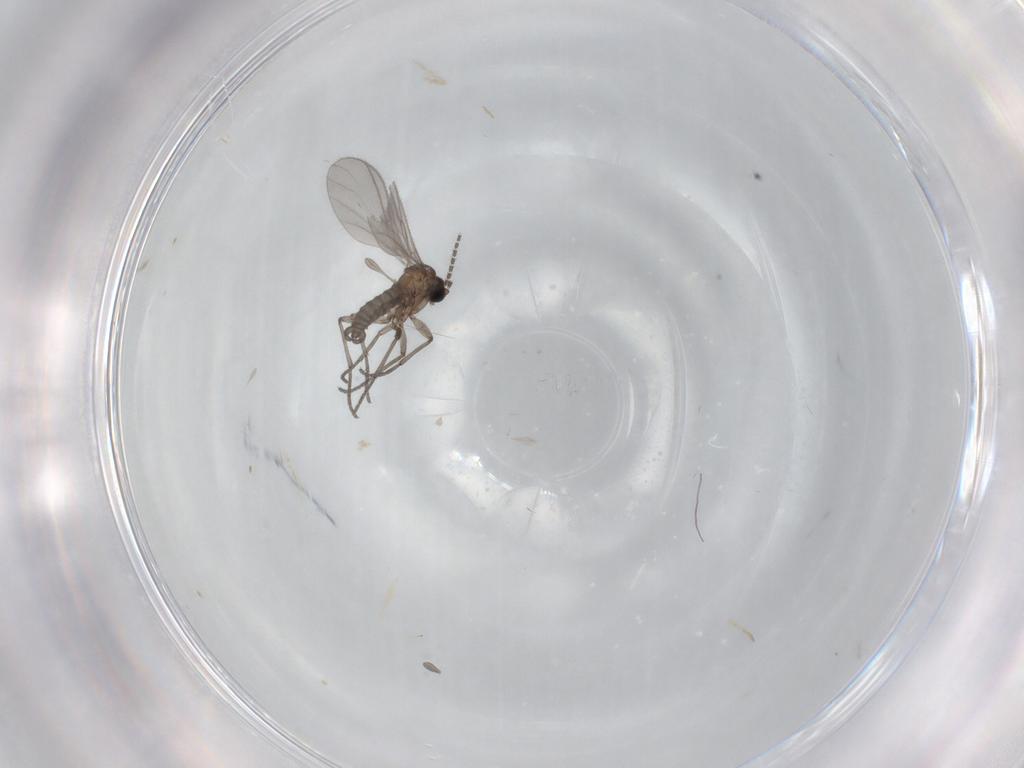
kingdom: Animalia
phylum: Arthropoda
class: Insecta
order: Diptera
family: Sciaridae
